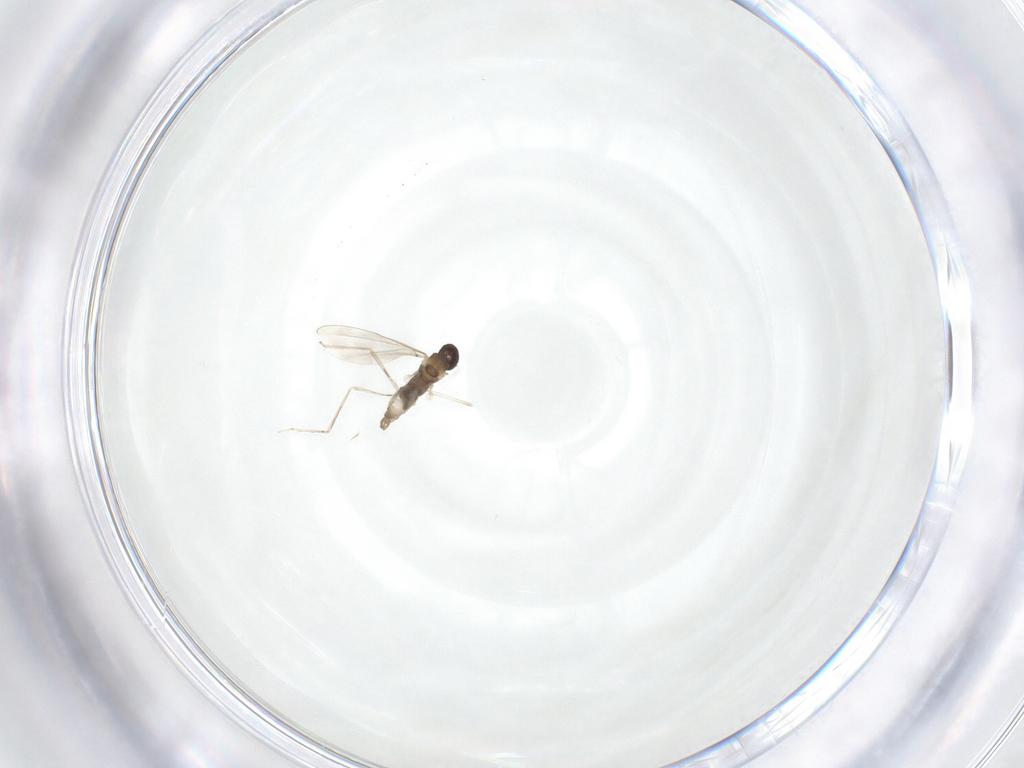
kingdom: Animalia
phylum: Arthropoda
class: Insecta
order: Diptera
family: Cecidomyiidae
